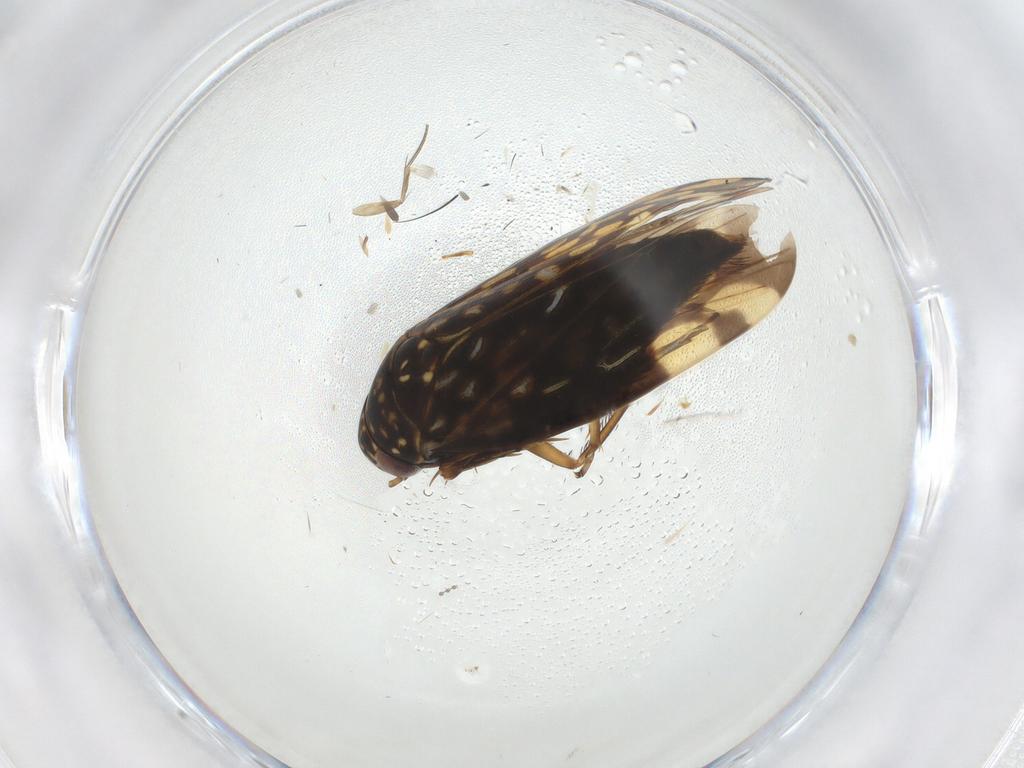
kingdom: Animalia
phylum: Arthropoda
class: Insecta
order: Hemiptera
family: Cicadellidae
